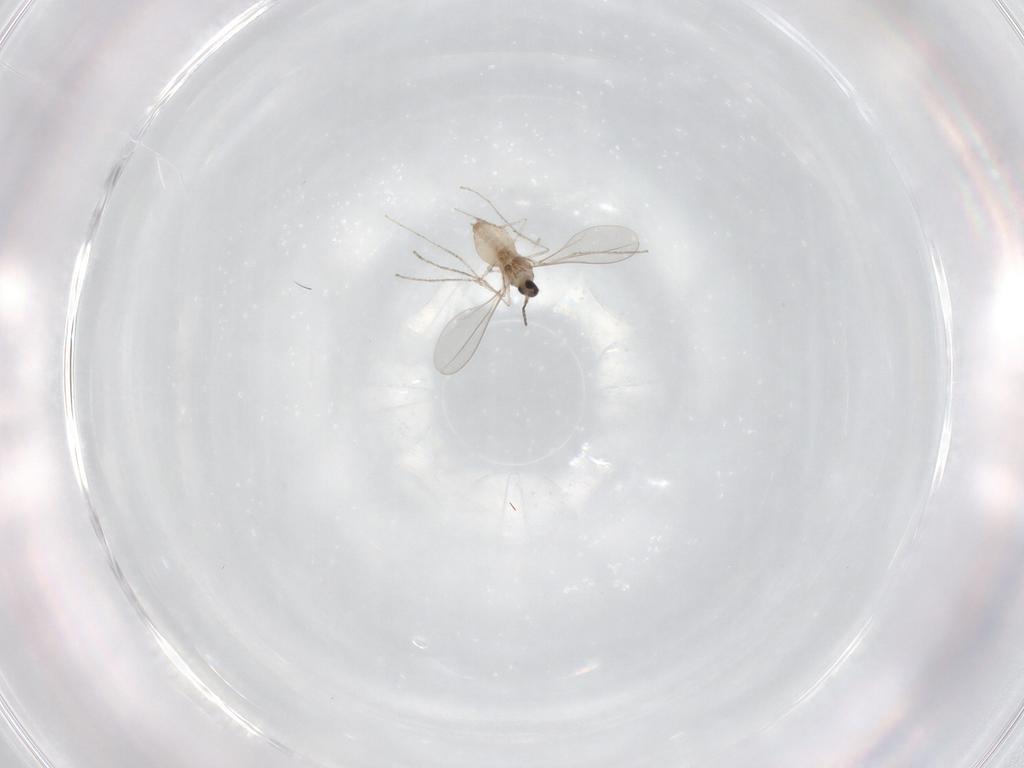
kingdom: Animalia
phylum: Arthropoda
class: Insecta
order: Diptera
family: Cecidomyiidae
